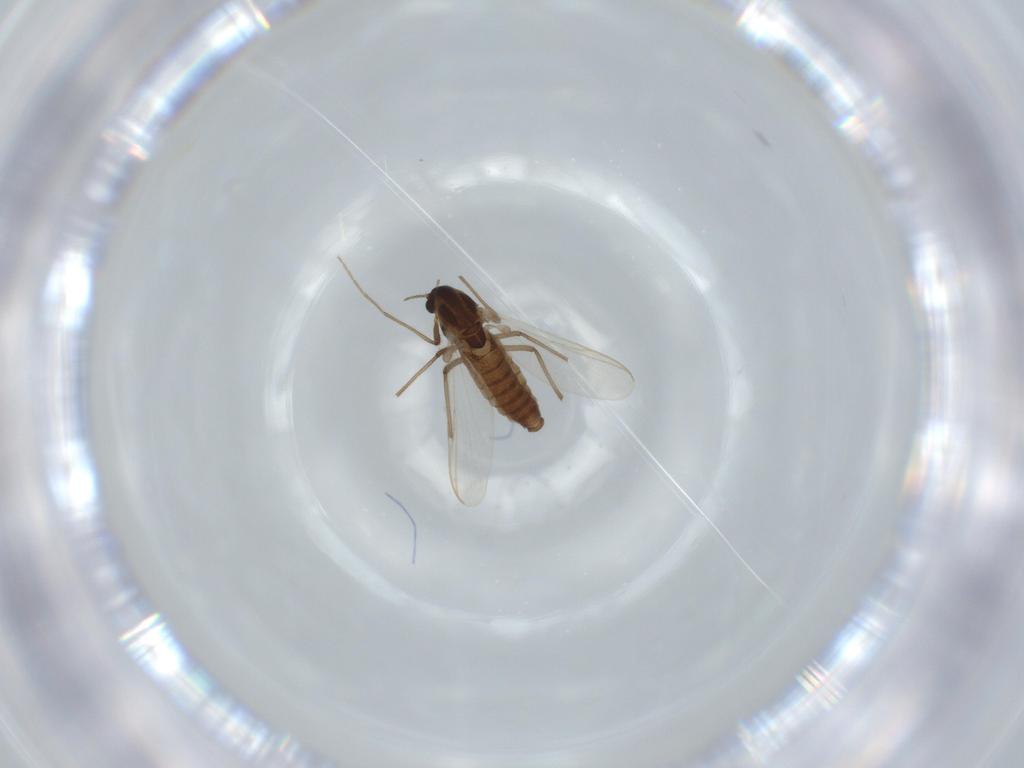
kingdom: Animalia
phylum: Arthropoda
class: Insecta
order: Diptera
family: Chironomidae
